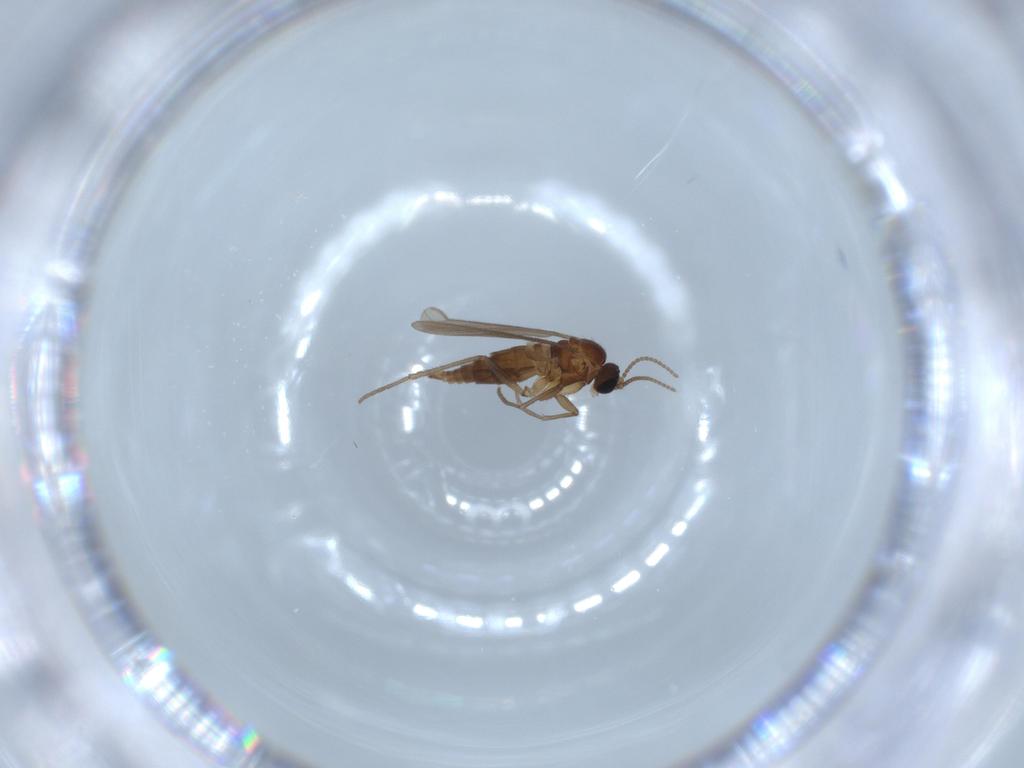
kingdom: Animalia
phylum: Arthropoda
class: Insecta
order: Diptera
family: Sciaridae
